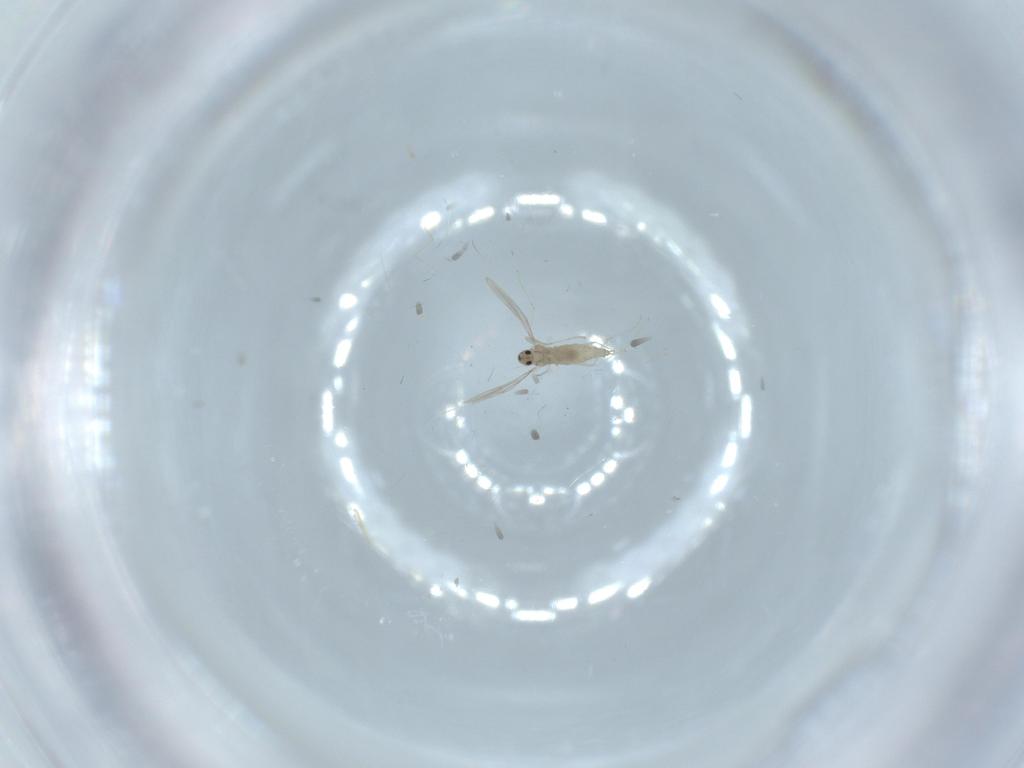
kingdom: Animalia
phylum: Arthropoda
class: Insecta
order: Diptera
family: Cecidomyiidae
